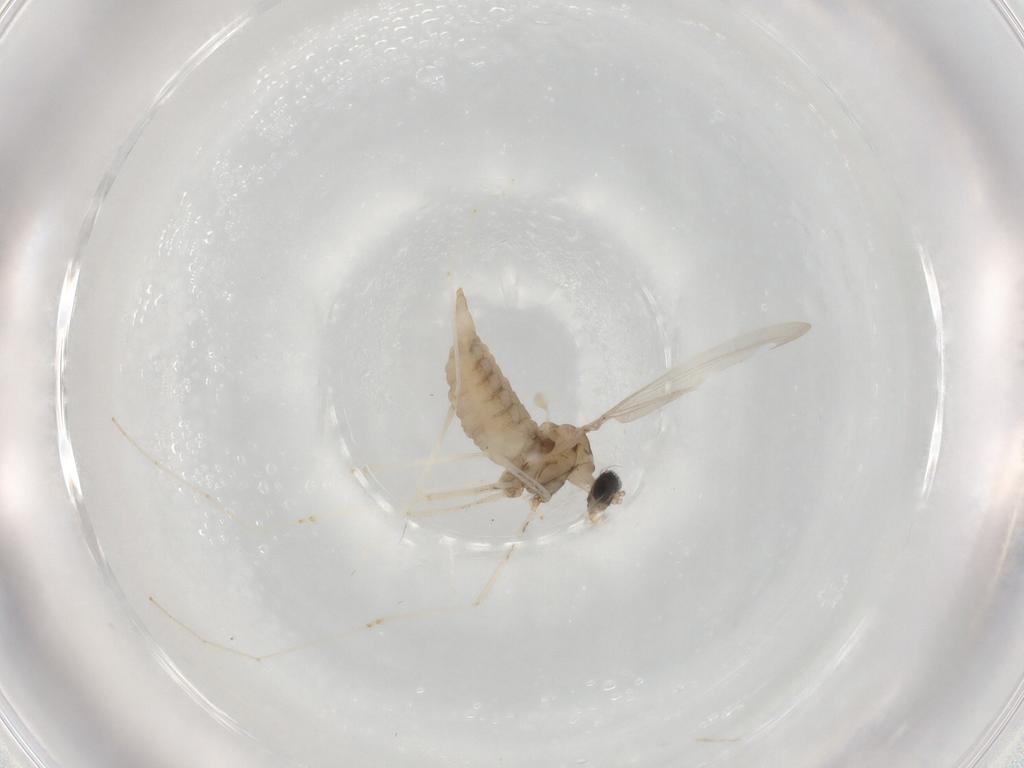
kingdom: Animalia
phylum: Arthropoda
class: Insecta
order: Diptera
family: Cecidomyiidae
